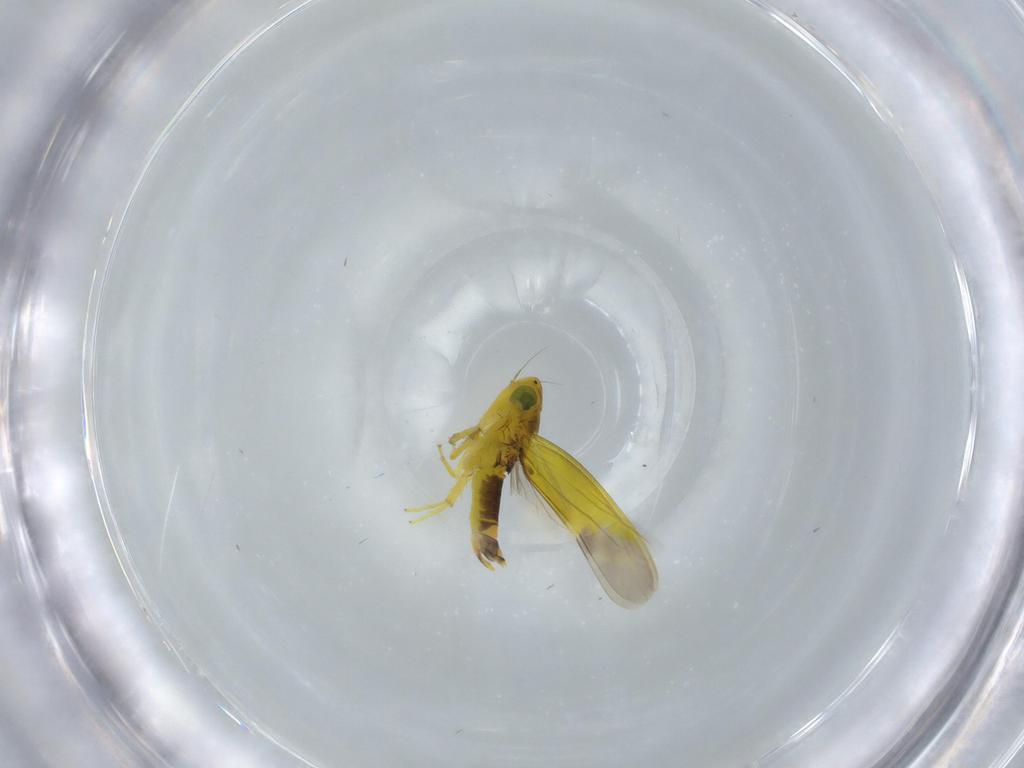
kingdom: Animalia
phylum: Arthropoda
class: Insecta
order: Hemiptera
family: Cicadellidae
